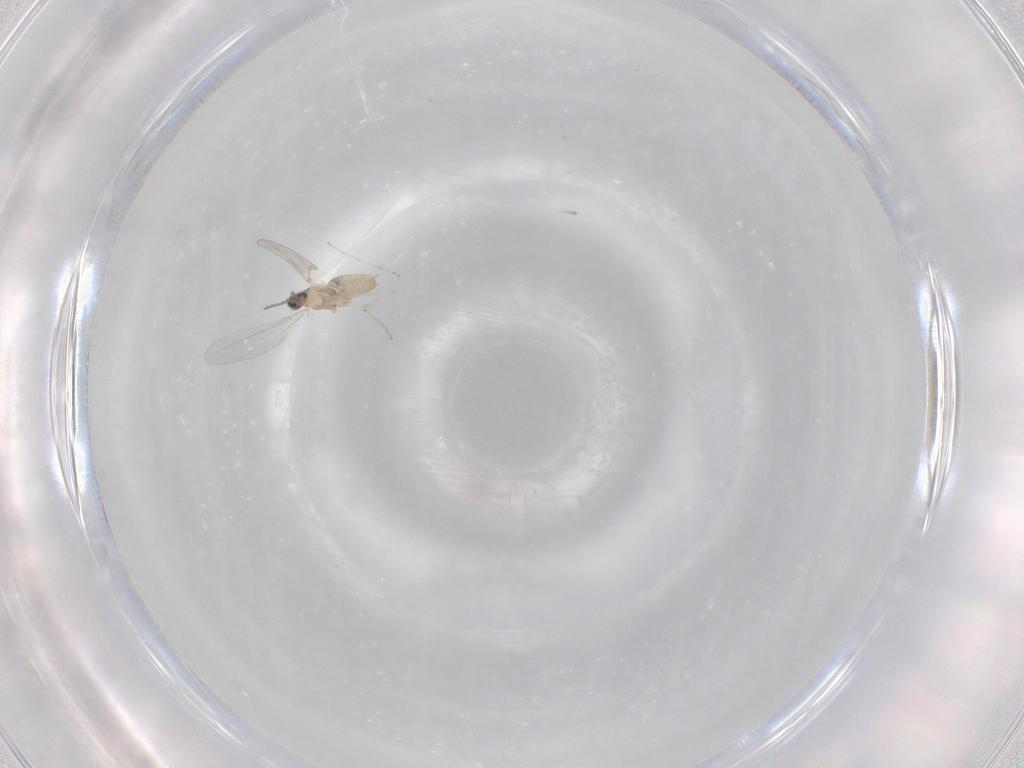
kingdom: Animalia
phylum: Arthropoda
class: Insecta
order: Diptera
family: Cecidomyiidae
